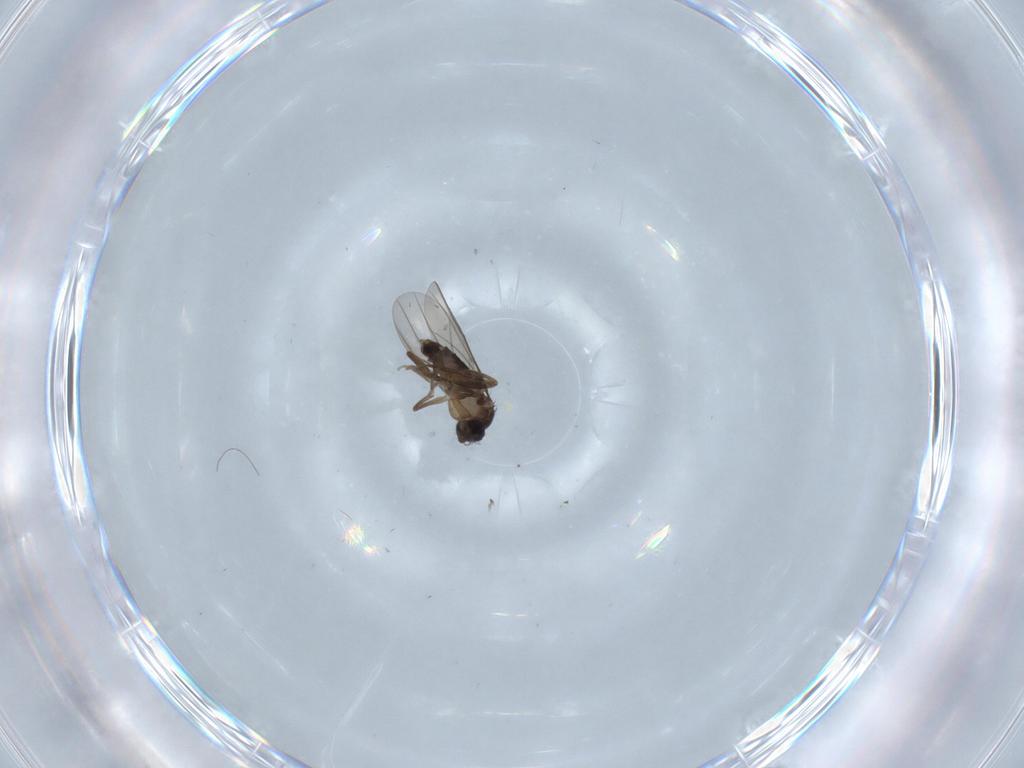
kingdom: Animalia
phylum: Arthropoda
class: Insecta
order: Diptera
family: Phoridae
